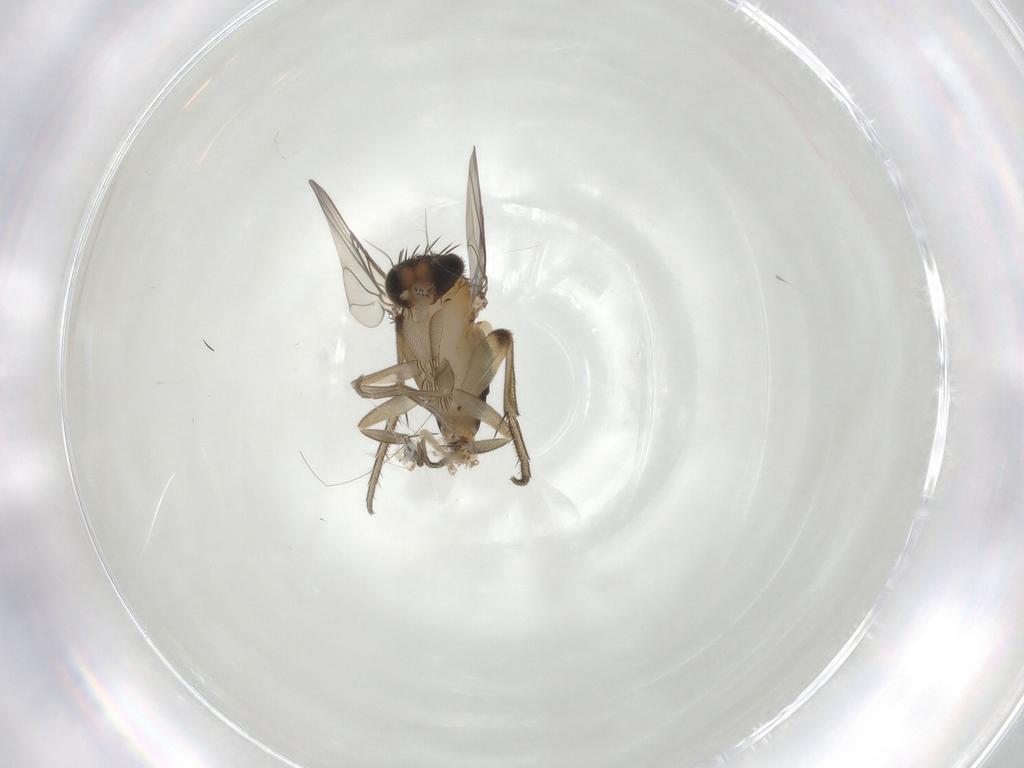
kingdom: Animalia
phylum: Arthropoda
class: Insecta
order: Diptera
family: Phoridae
